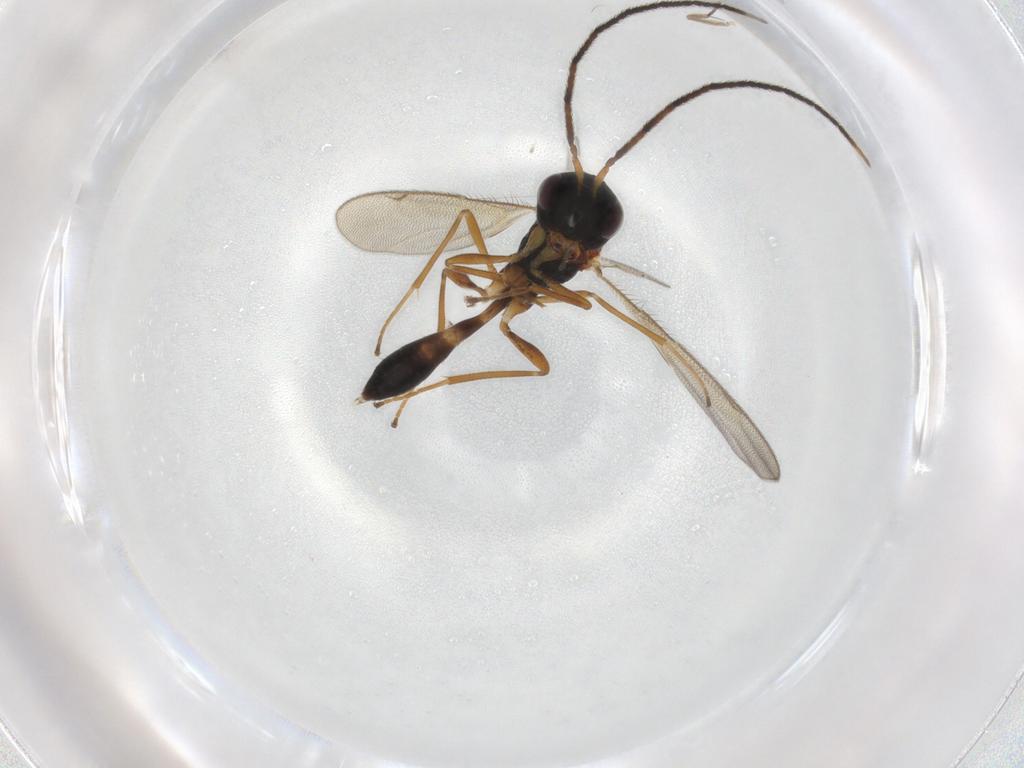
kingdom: Animalia
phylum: Arthropoda
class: Insecta
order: Hymenoptera
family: Pteromalidae
